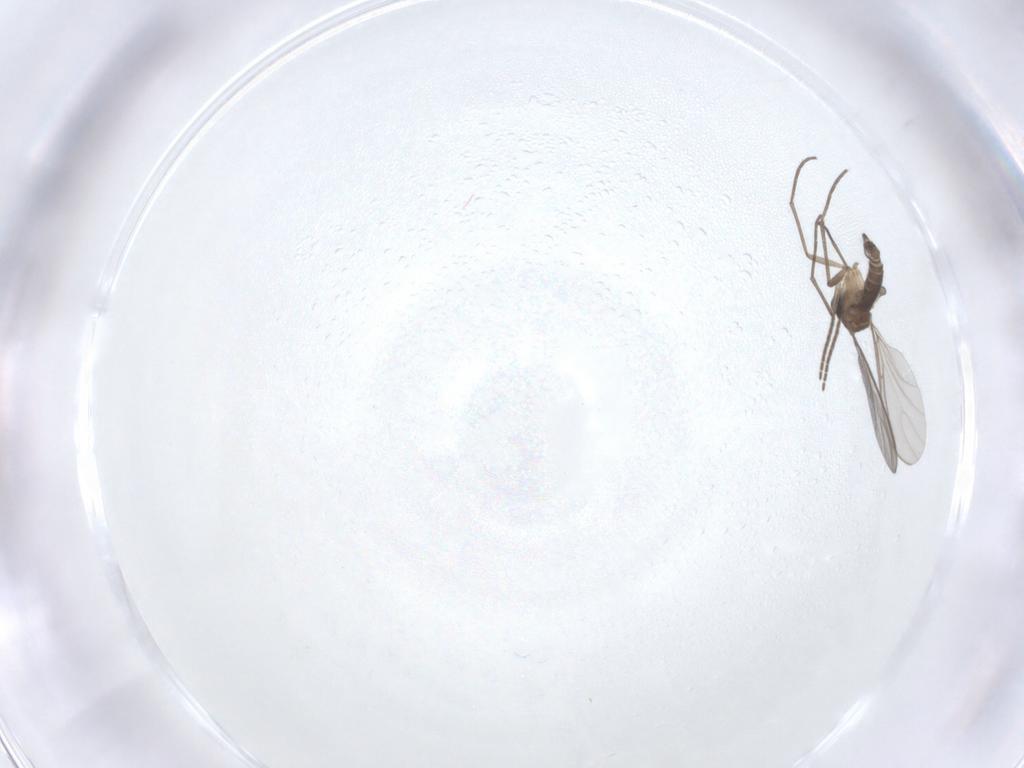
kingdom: Animalia
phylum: Arthropoda
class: Insecta
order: Diptera
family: Sciaridae
